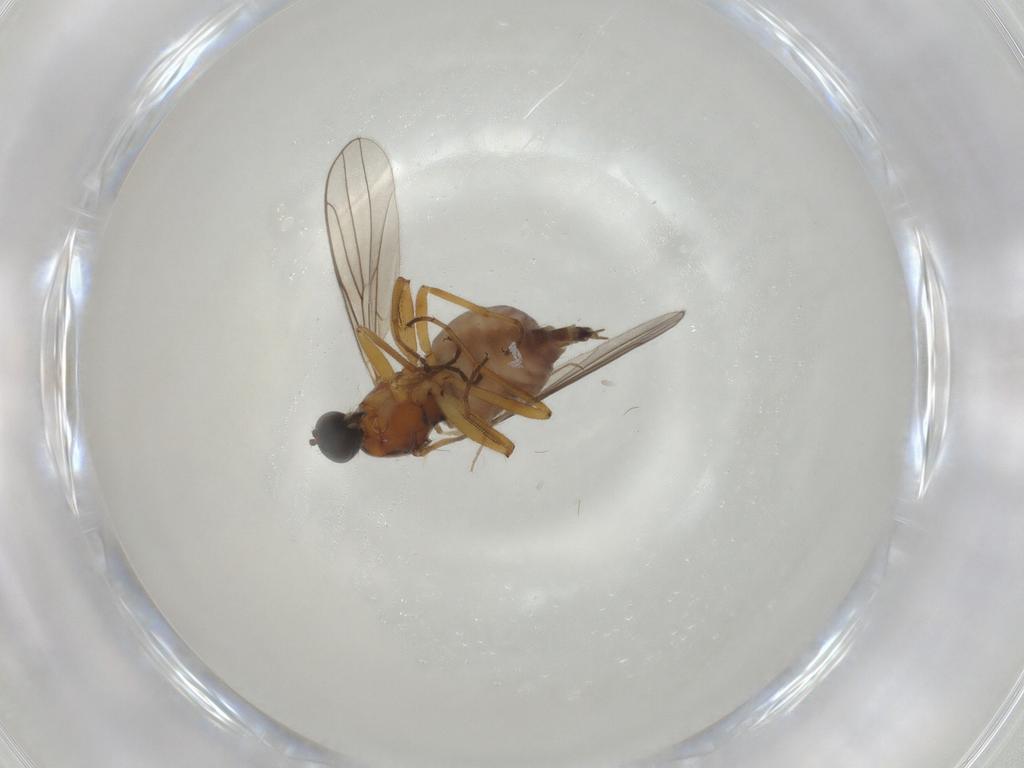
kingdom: Animalia
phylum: Arthropoda
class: Insecta
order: Diptera
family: Hybotidae
